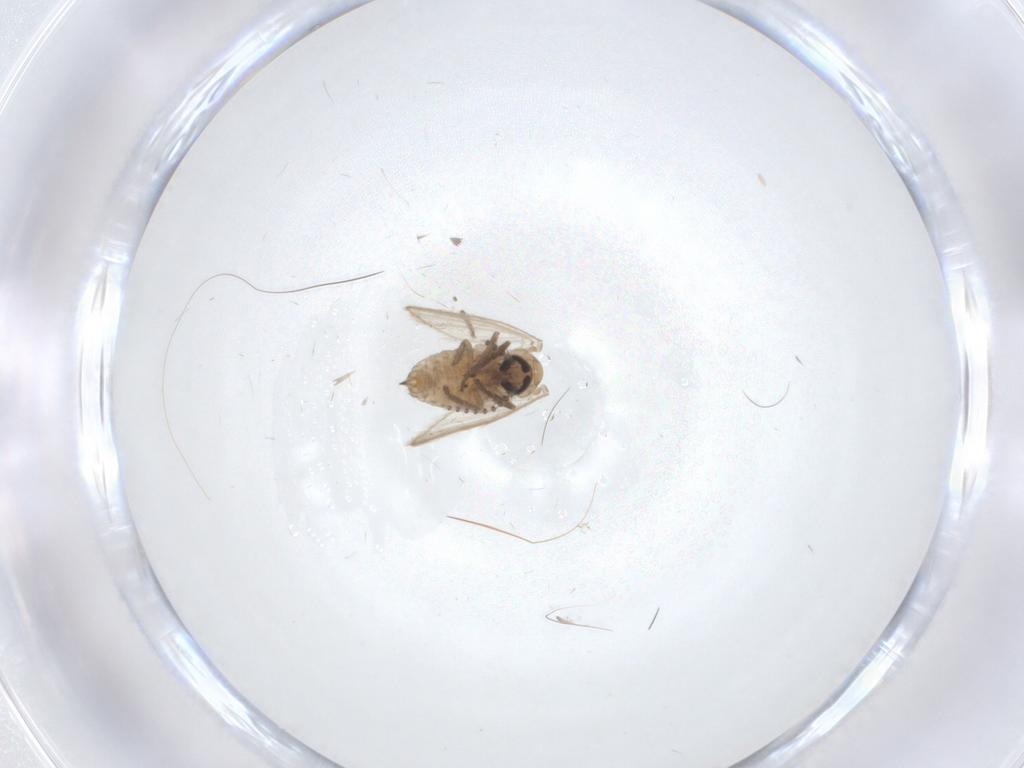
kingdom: Animalia
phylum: Arthropoda
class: Insecta
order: Diptera
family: Psychodidae
